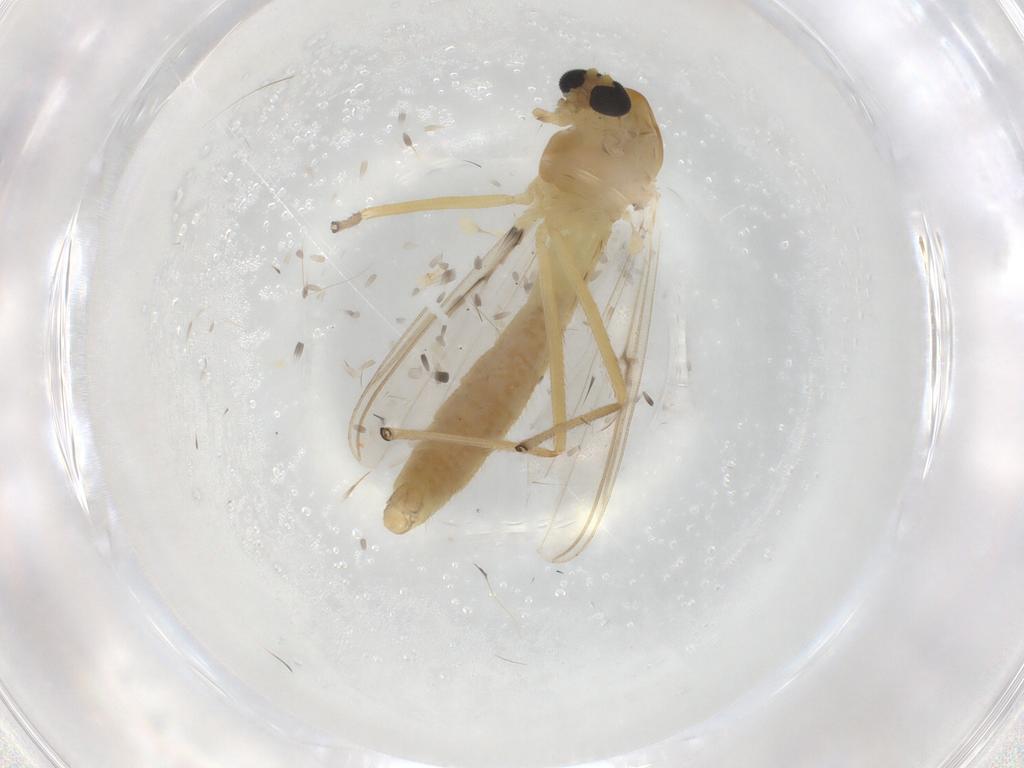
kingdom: Animalia
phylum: Arthropoda
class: Insecta
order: Diptera
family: Chironomidae
